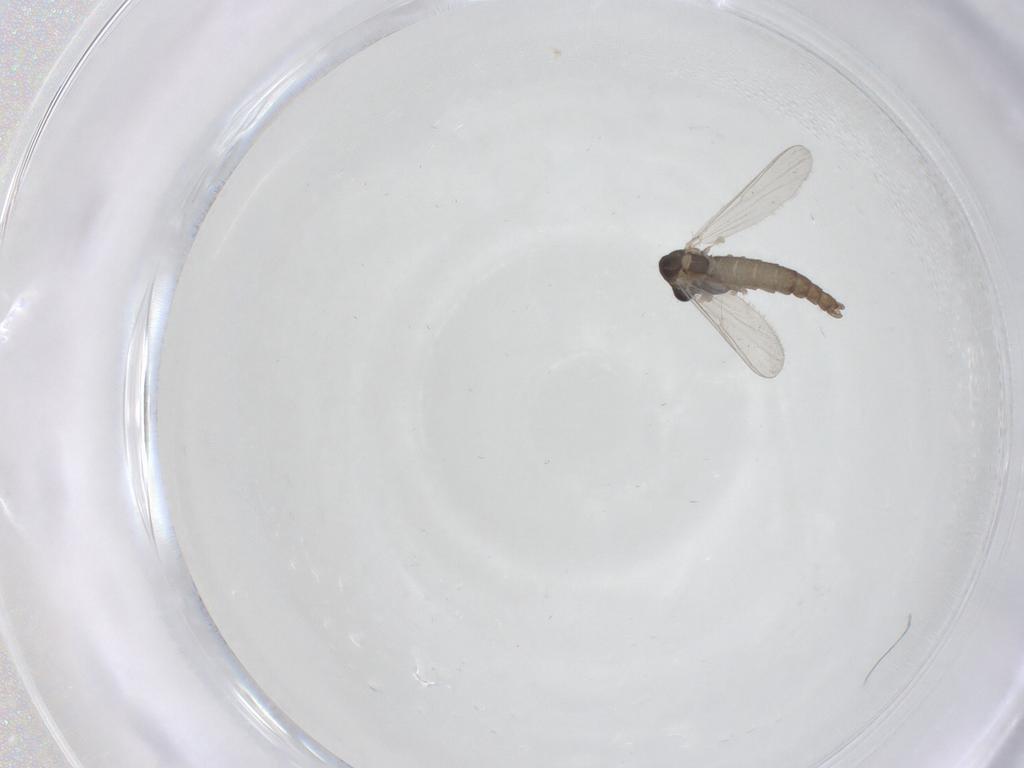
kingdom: Animalia
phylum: Arthropoda
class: Insecta
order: Diptera
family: Chironomidae
